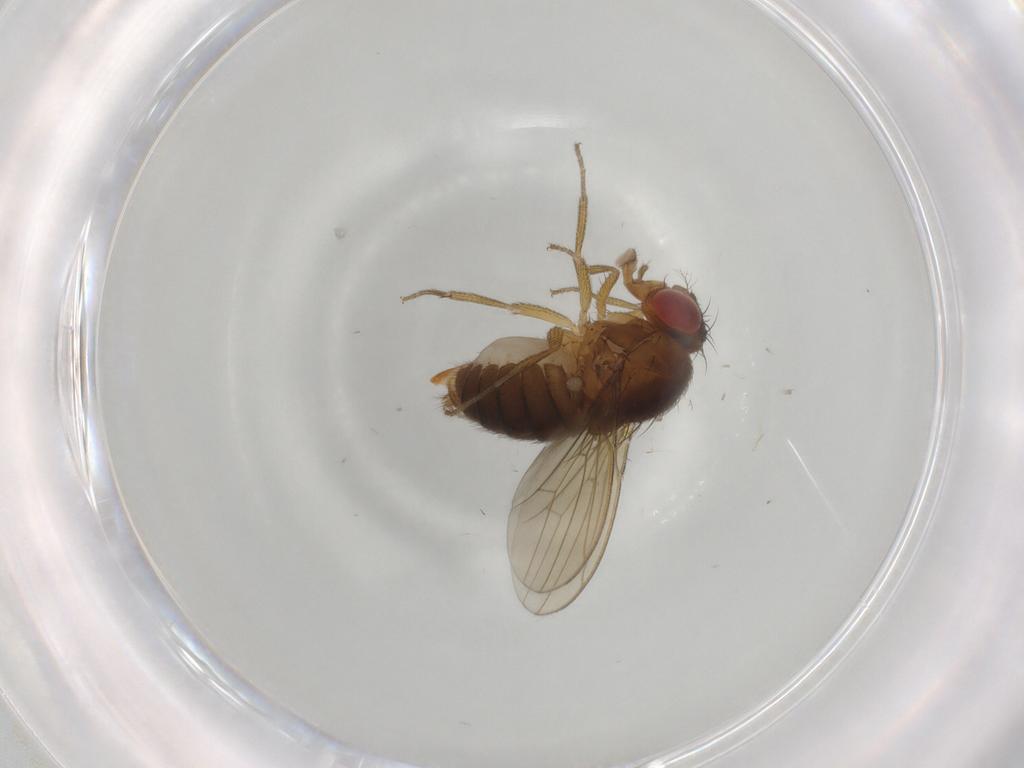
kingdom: Animalia
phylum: Arthropoda
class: Insecta
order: Diptera
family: Drosophilidae
